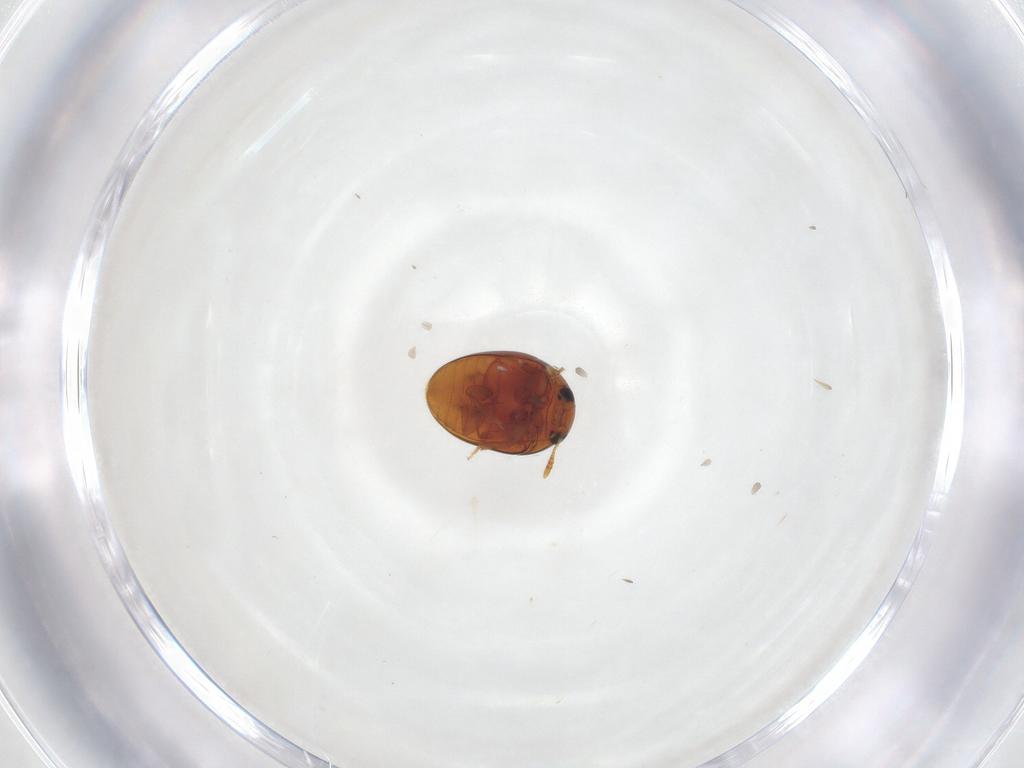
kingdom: Animalia
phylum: Arthropoda
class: Insecta
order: Coleoptera
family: Phalacridae
